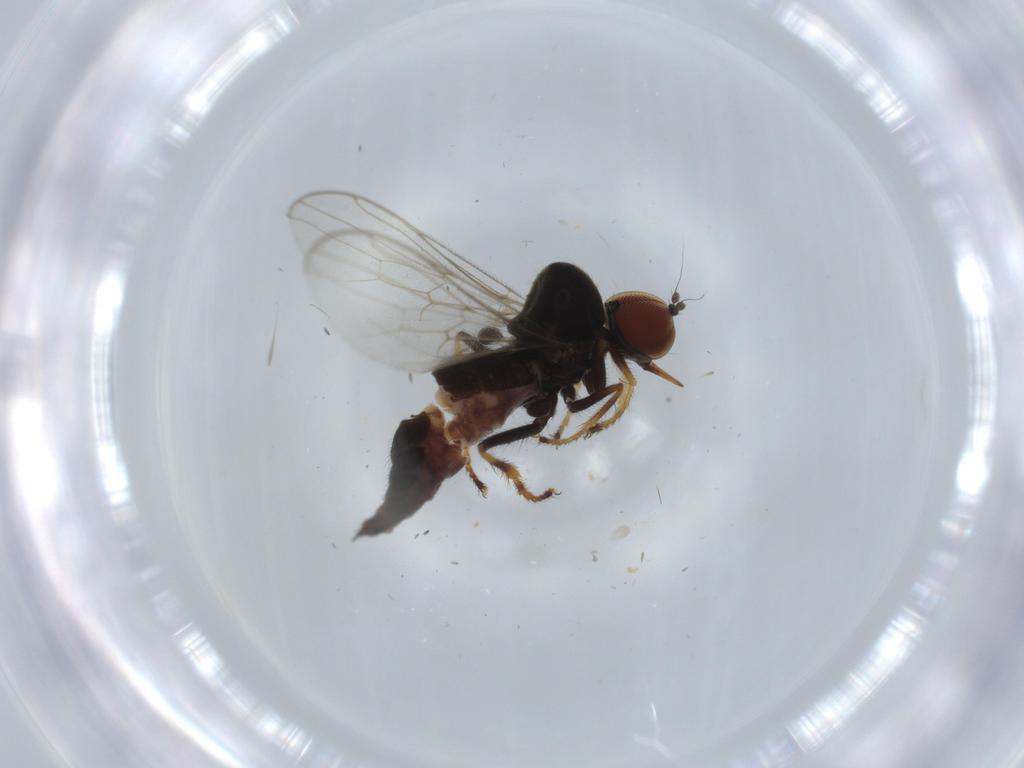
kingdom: Animalia
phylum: Arthropoda
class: Insecta
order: Diptera
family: Hybotidae
